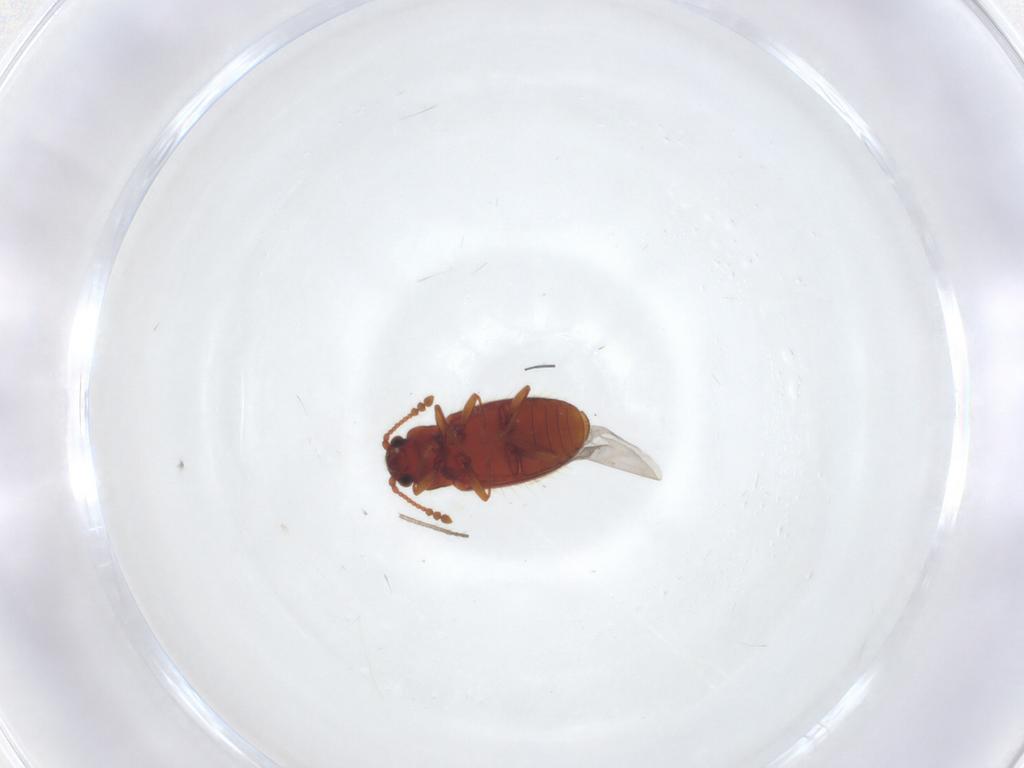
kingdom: Animalia
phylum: Arthropoda
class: Insecta
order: Coleoptera
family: Cryptophagidae
